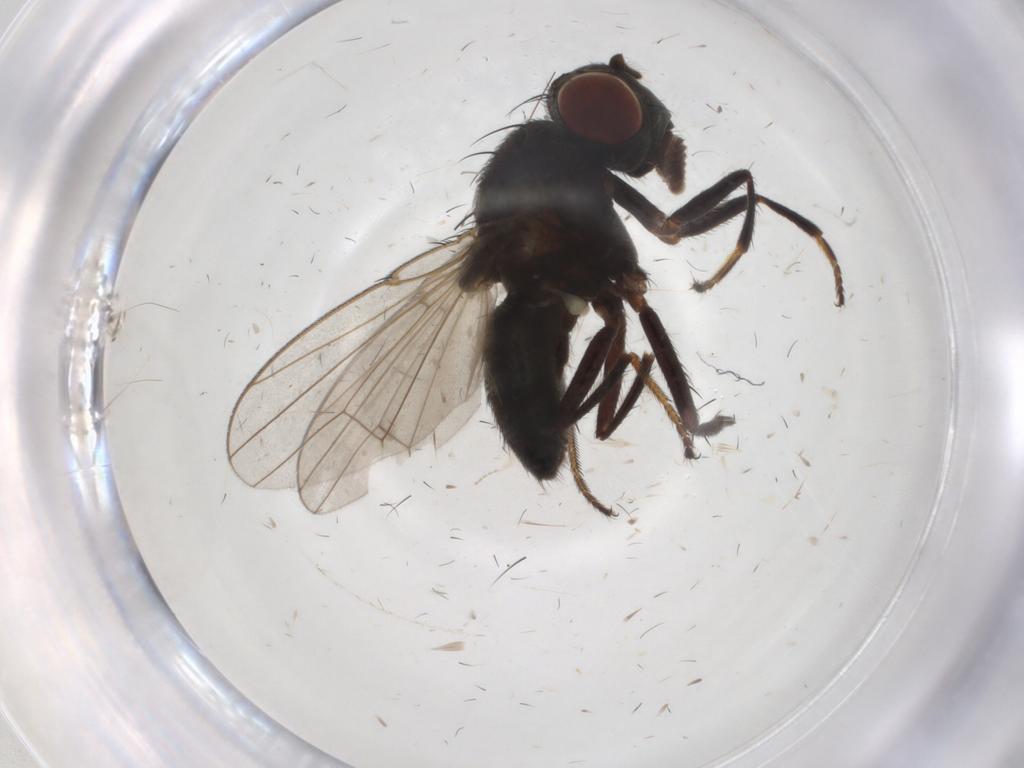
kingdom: Animalia
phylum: Arthropoda
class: Insecta
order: Diptera
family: Ephydridae
